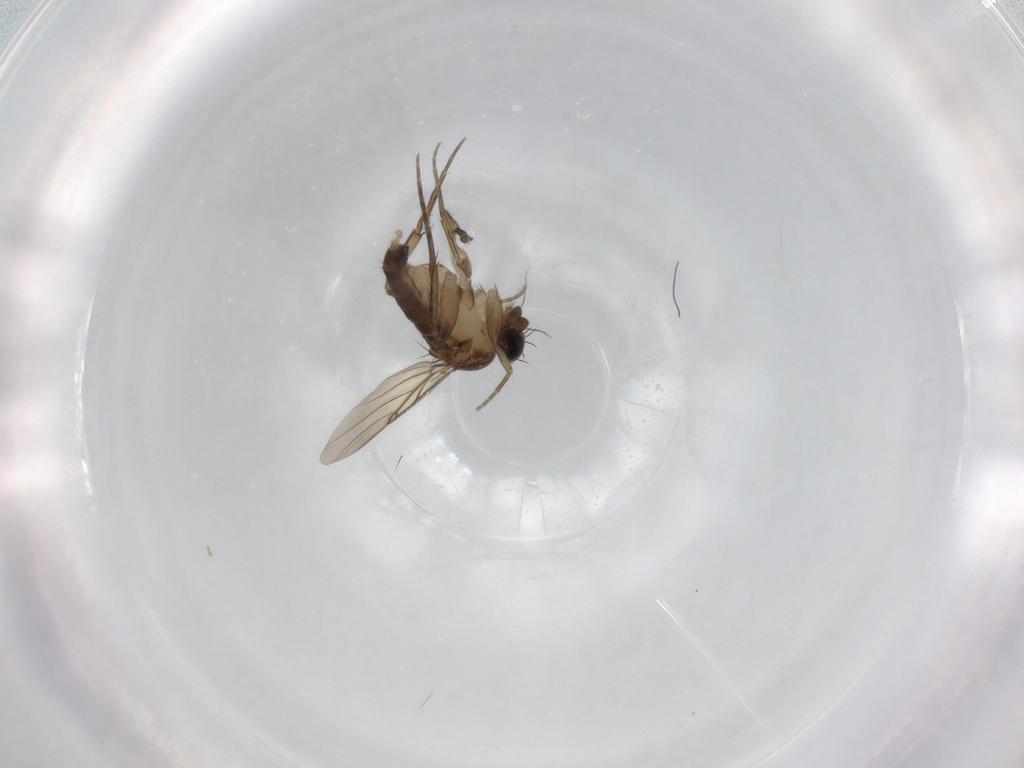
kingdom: Animalia
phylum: Arthropoda
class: Insecta
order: Diptera
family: Phoridae
